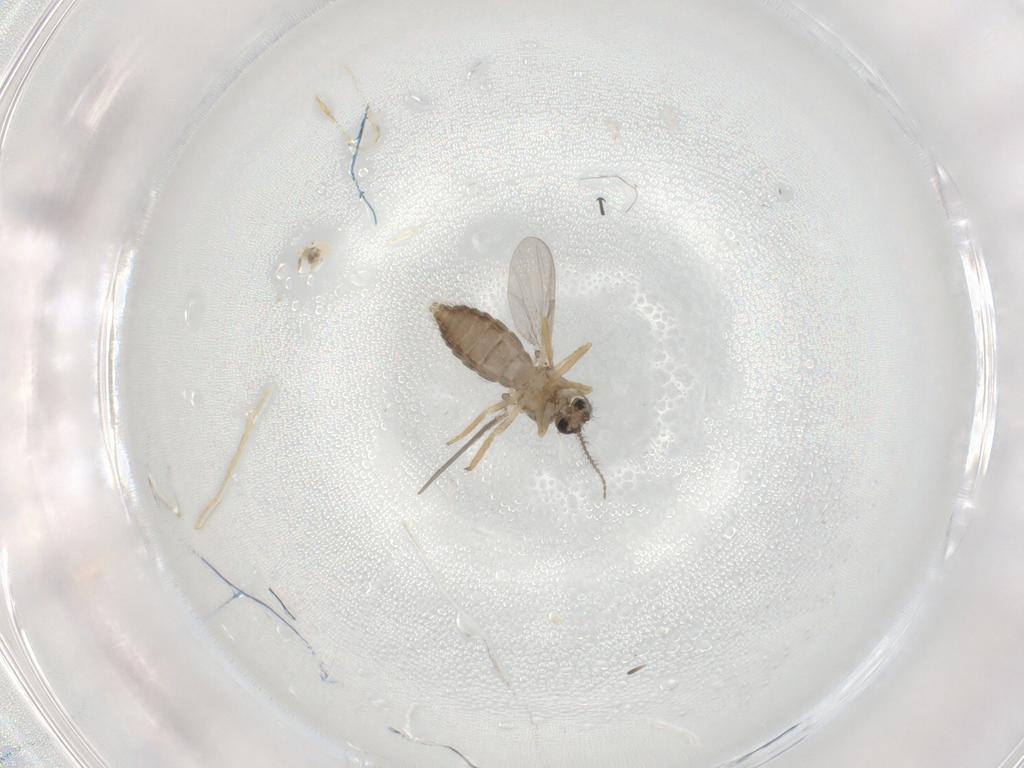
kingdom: Animalia
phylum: Arthropoda
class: Insecta
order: Diptera
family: Ceratopogonidae
